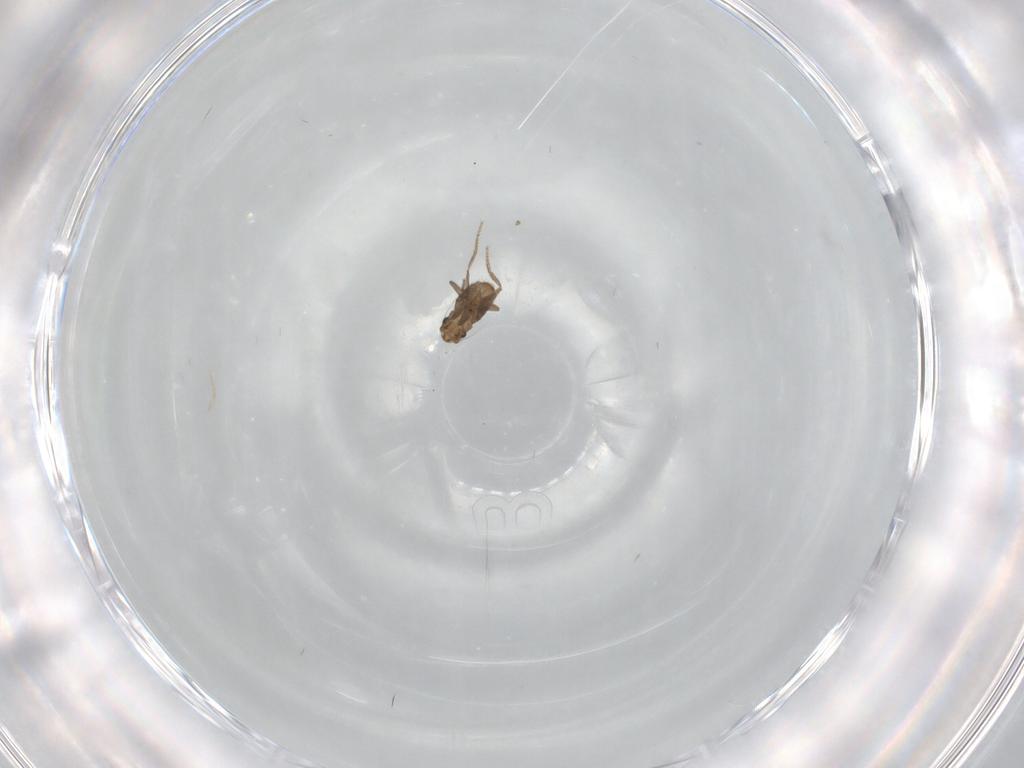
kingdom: Animalia
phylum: Arthropoda
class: Insecta
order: Diptera
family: Phoridae
